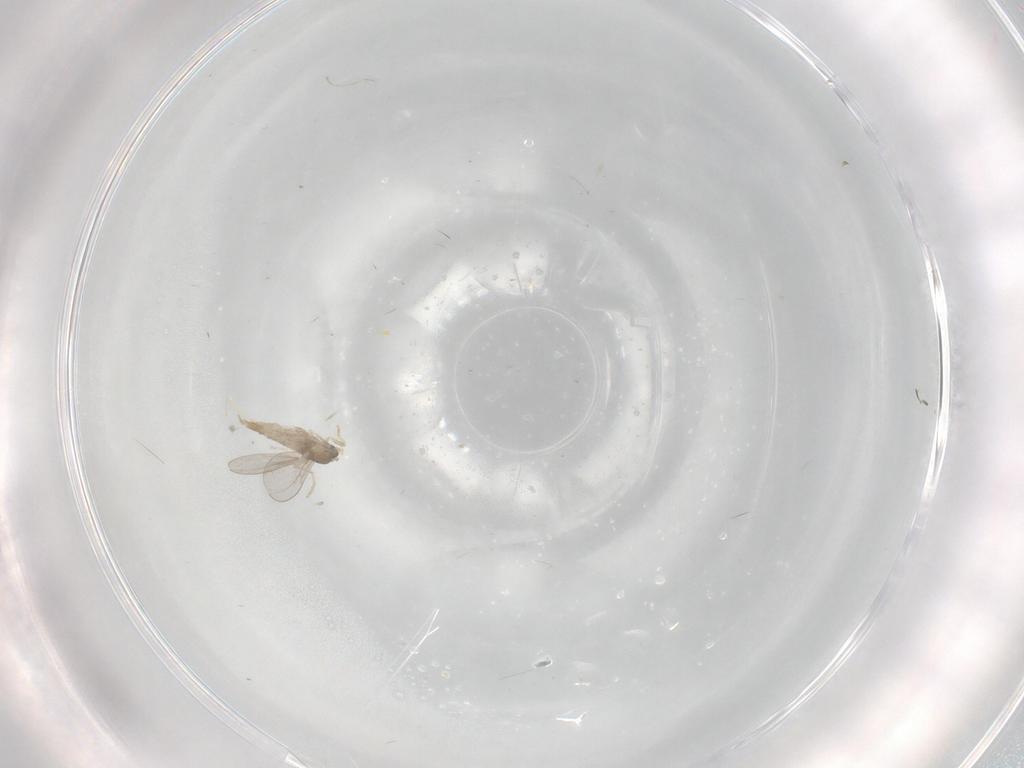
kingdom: Animalia
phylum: Arthropoda
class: Insecta
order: Diptera
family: Cecidomyiidae
